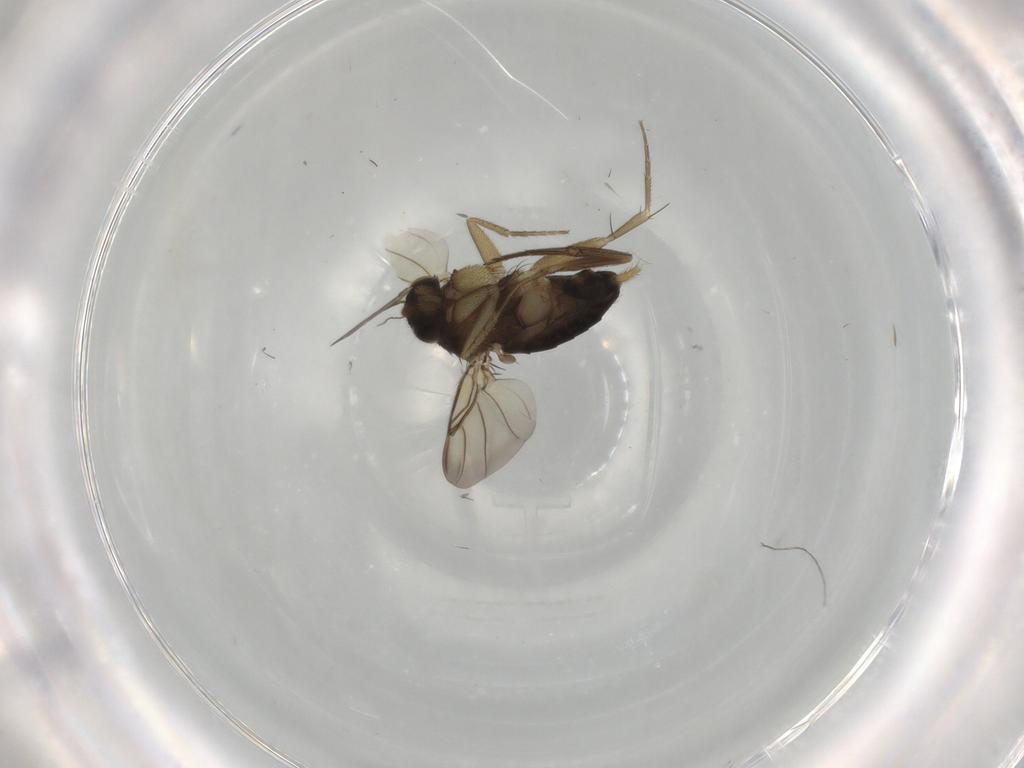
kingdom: Animalia
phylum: Arthropoda
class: Insecta
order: Diptera
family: Phoridae
